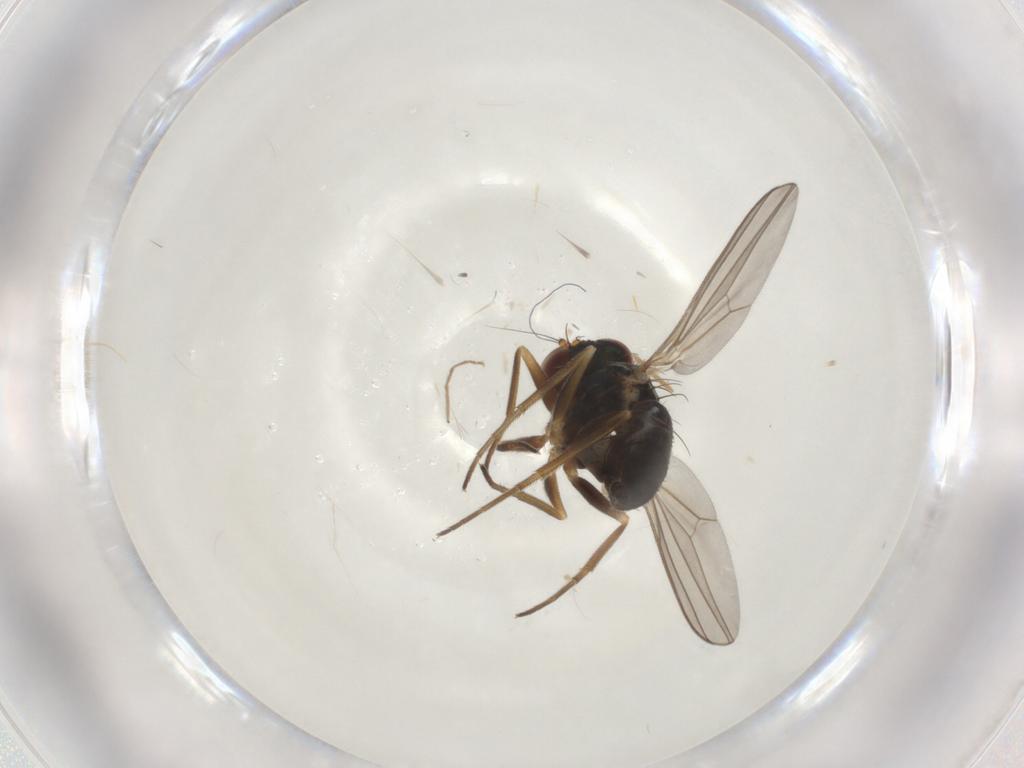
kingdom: Animalia
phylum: Arthropoda
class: Insecta
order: Diptera
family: Dolichopodidae
